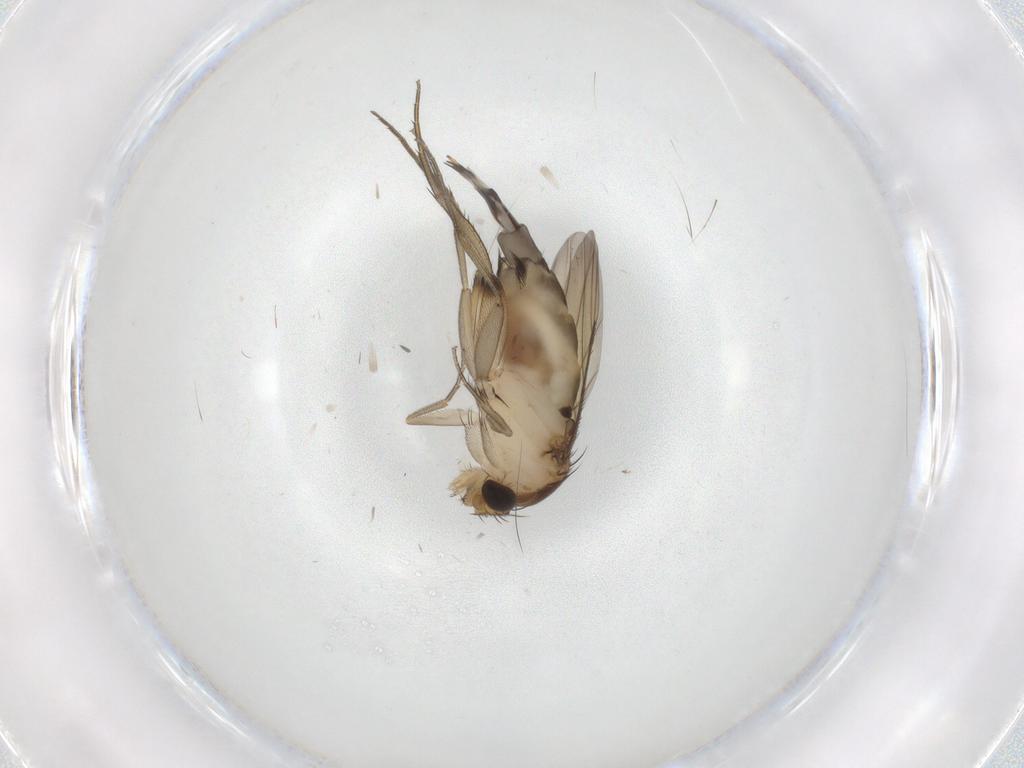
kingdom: Animalia
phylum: Arthropoda
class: Insecta
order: Diptera
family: Phoridae
